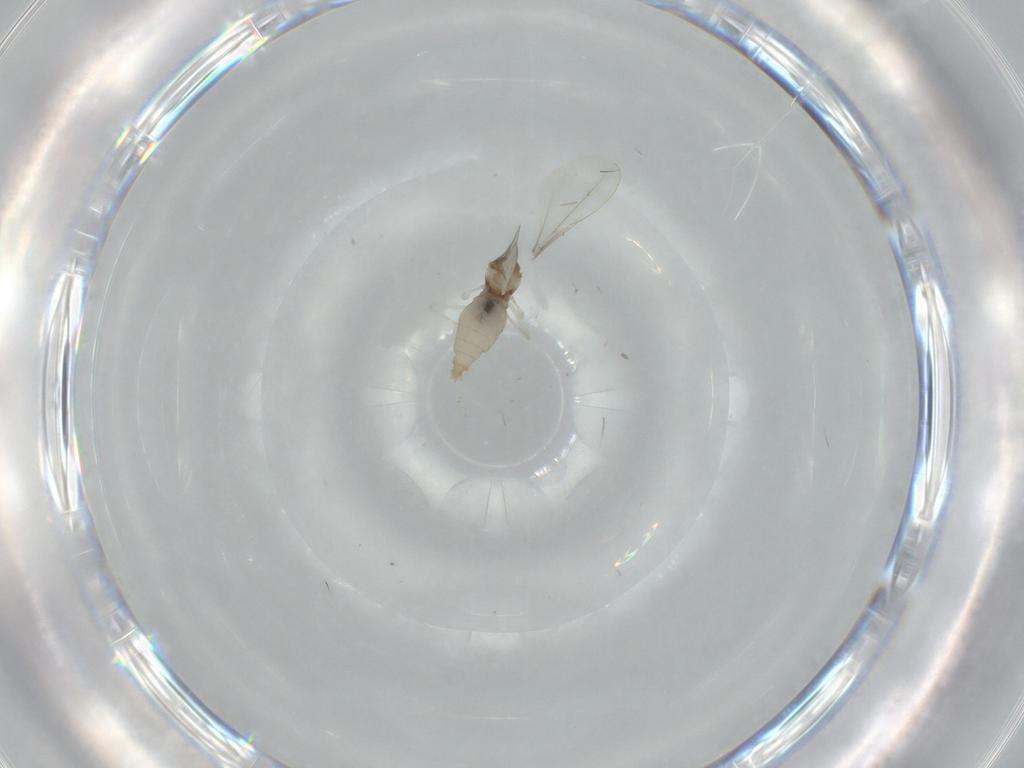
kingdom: Animalia
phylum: Arthropoda
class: Insecta
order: Diptera
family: Cecidomyiidae
